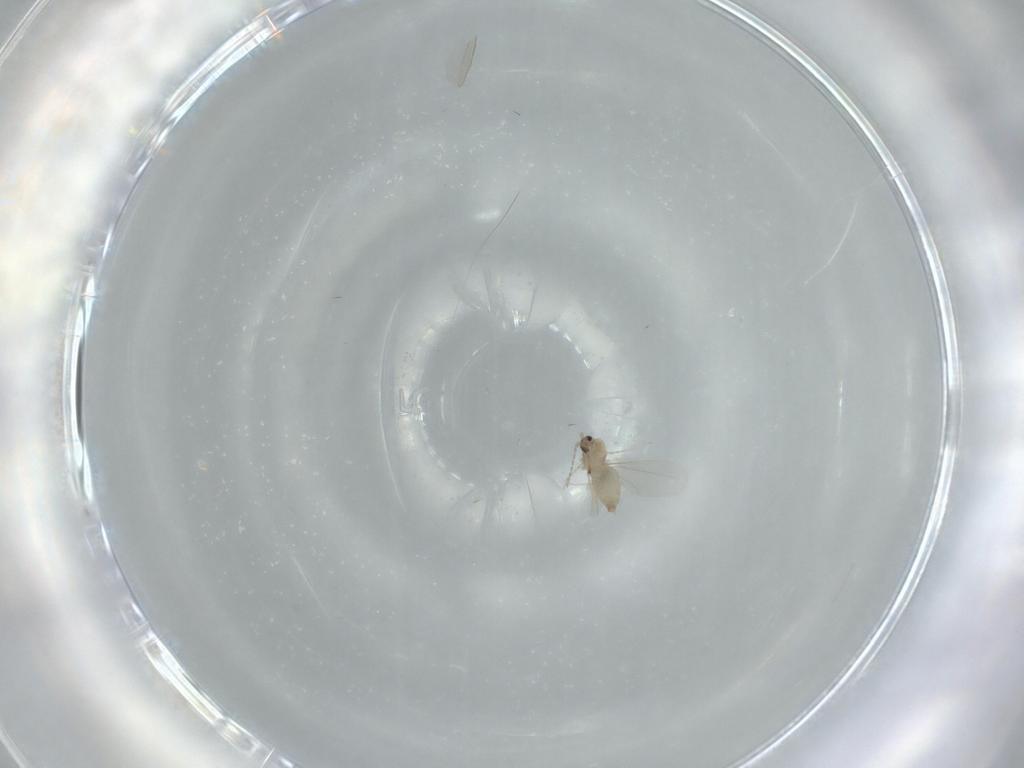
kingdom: Animalia
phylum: Arthropoda
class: Insecta
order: Diptera
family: Cecidomyiidae
